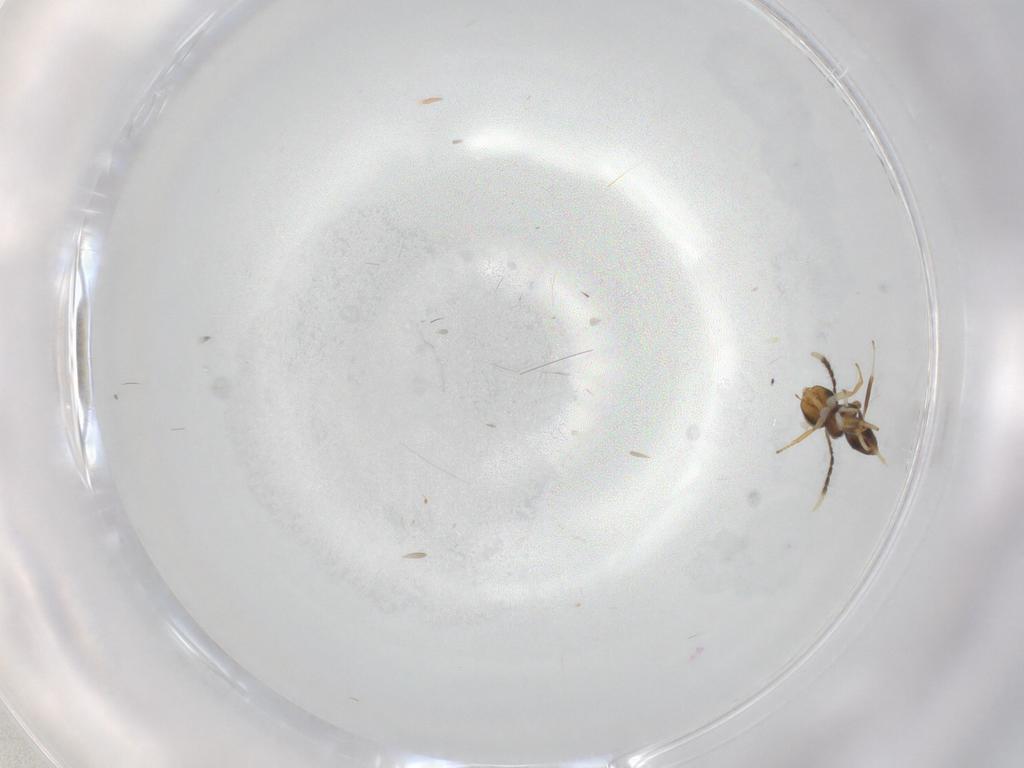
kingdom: Animalia
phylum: Arthropoda
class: Insecta
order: Hymenoptera
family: Encyrtidae
